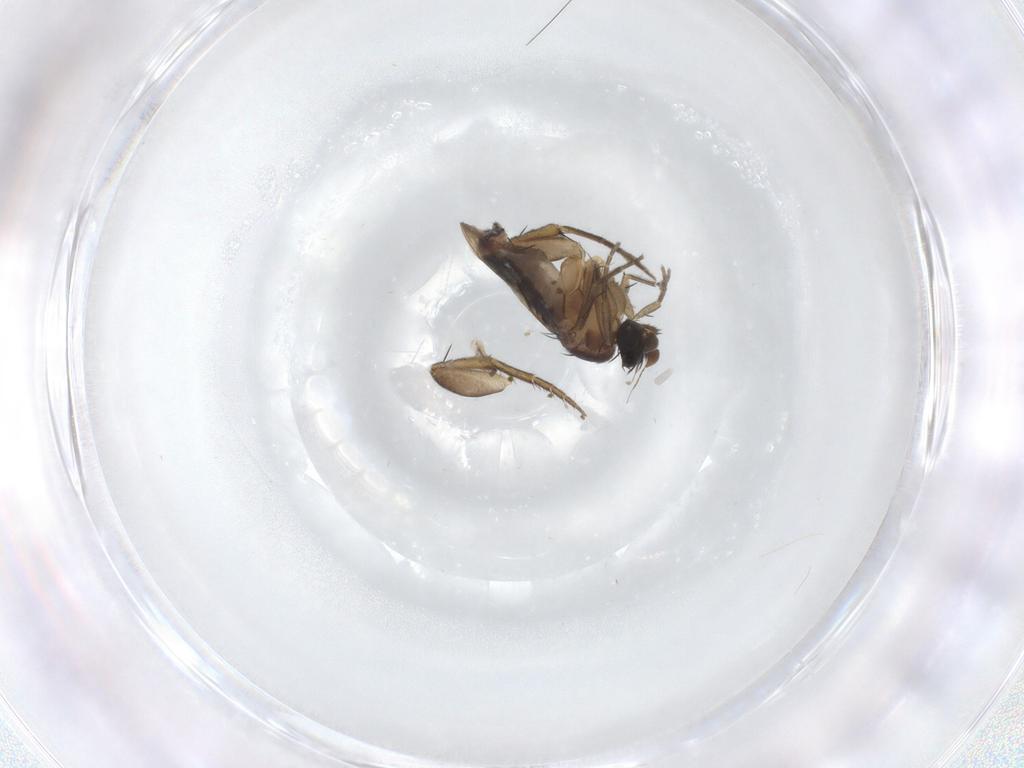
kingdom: Animalia
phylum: Arthropoda
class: Insecta
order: Diptera
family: Phoridae
